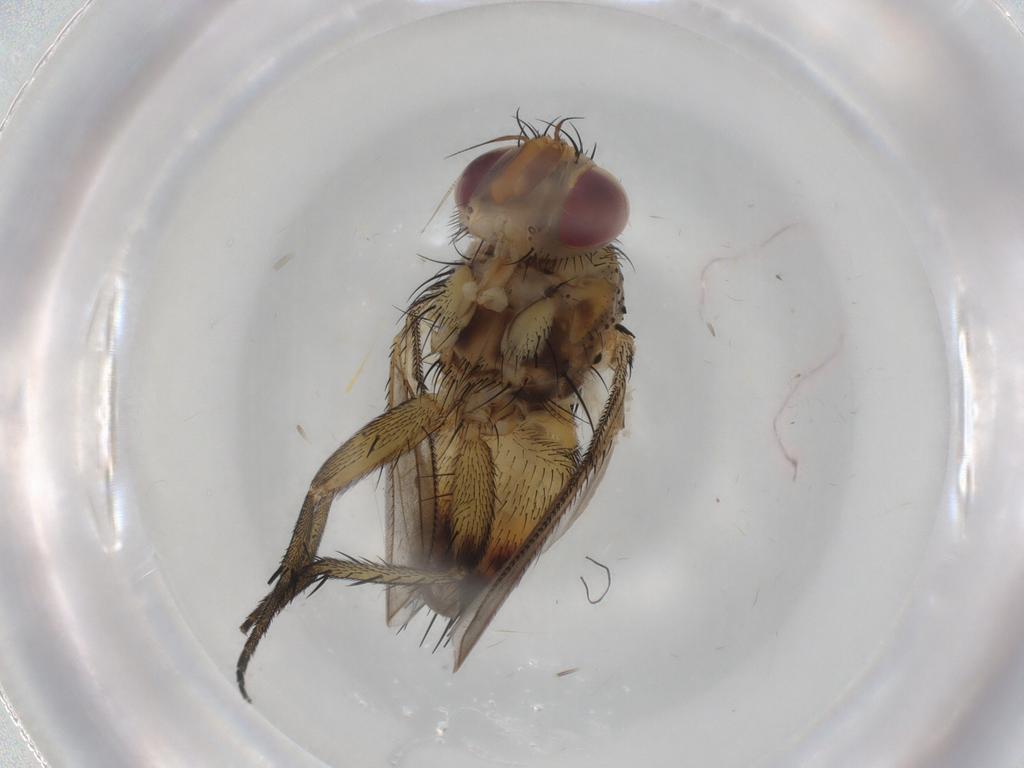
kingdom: Animalia
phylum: Arthropoda
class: Insecta
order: Diptera
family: Tachinidae
